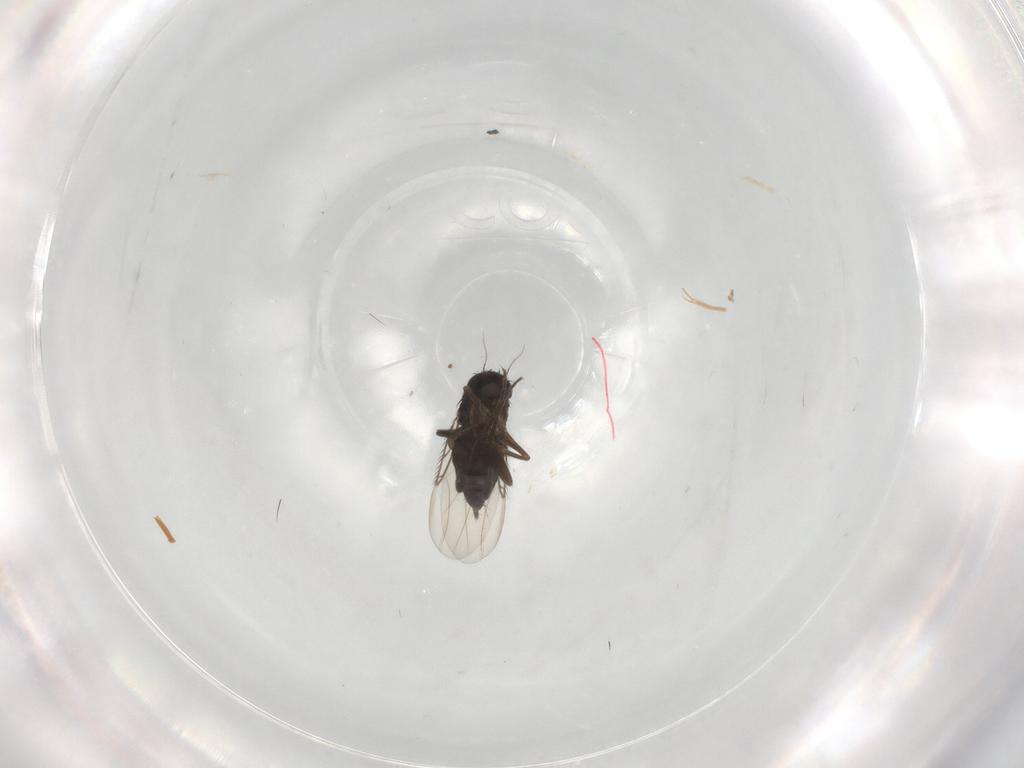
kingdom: Animalia
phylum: Arthropoda
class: Insecta
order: Diptera
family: Phoridae
